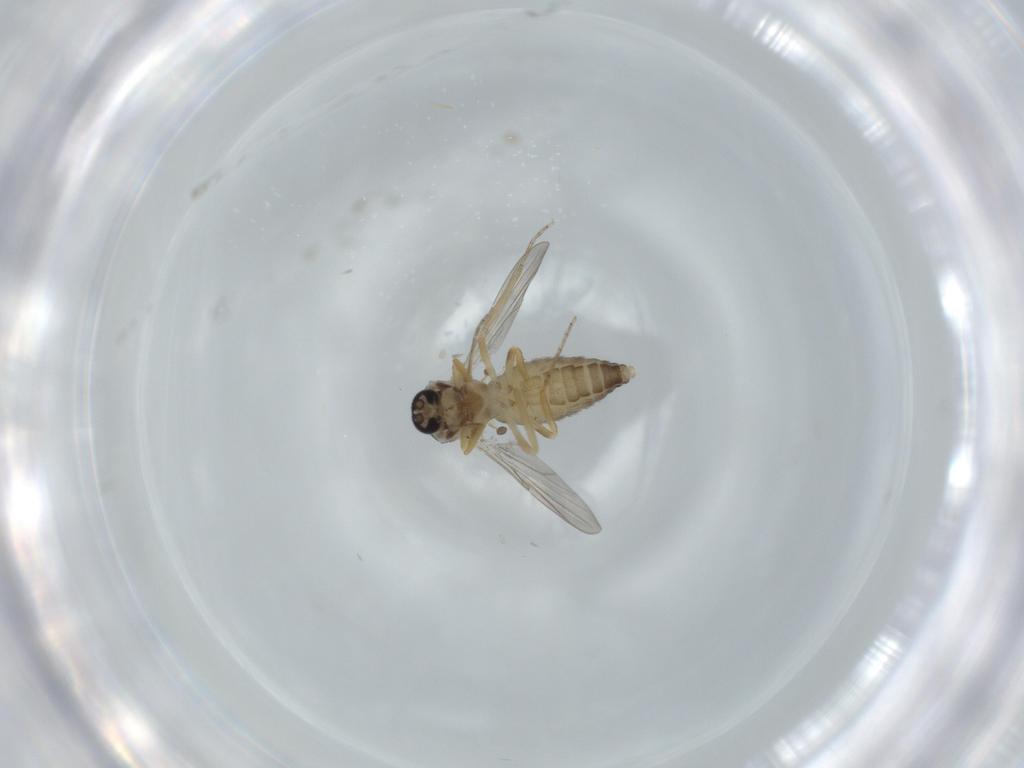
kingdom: Animalia
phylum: Arthropoda
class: Insecta
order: Diptera
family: Ceratopogonidae
